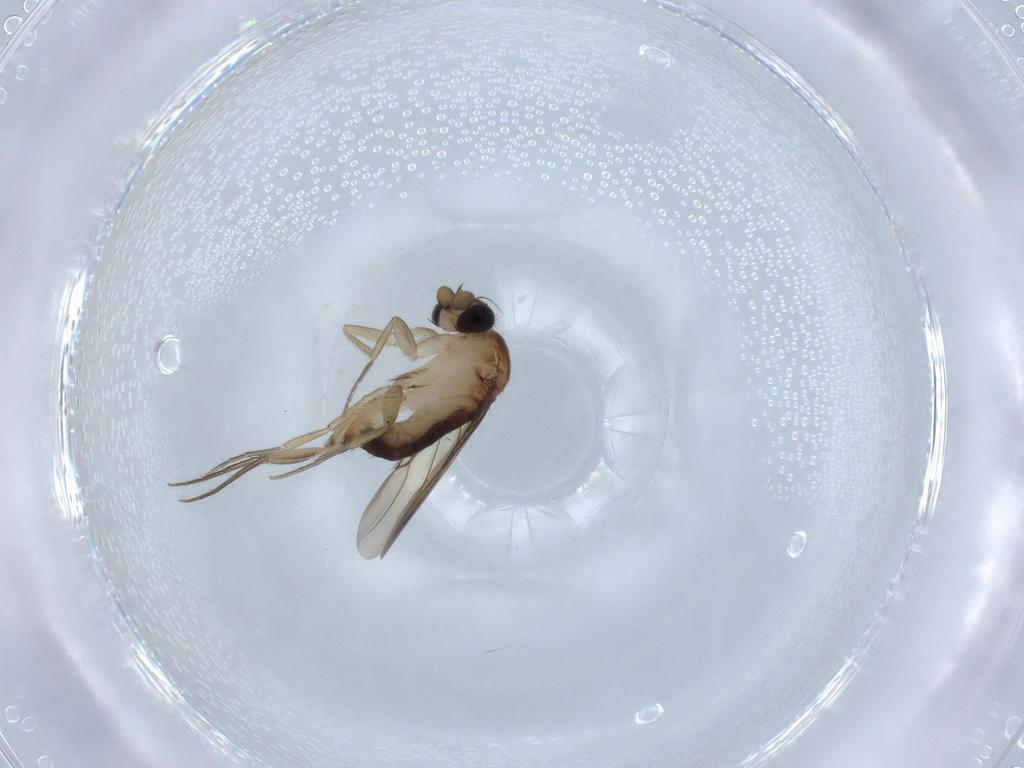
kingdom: Animalia
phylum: Arthropoda
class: Insecta
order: Diptera
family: Phoridae
